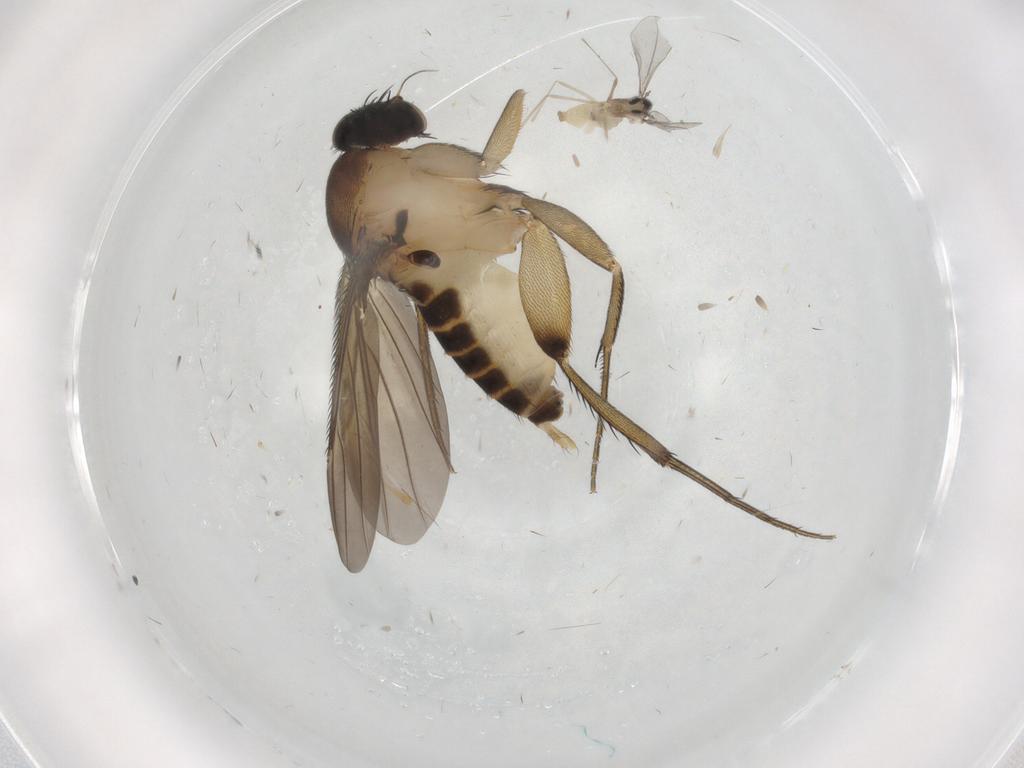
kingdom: Animalia
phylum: Arthropoda
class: Insecta
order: Diptera
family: Phoridae
